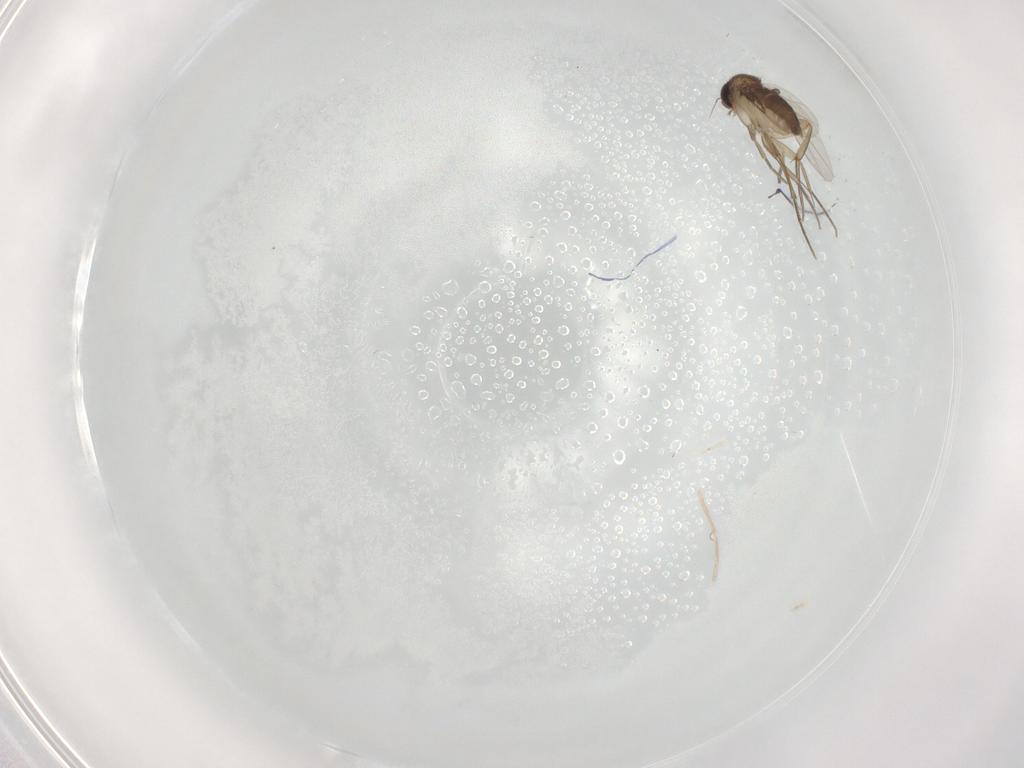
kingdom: Animalia
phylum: Arthropoda
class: Insecta
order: Diptera
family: Phoridae
